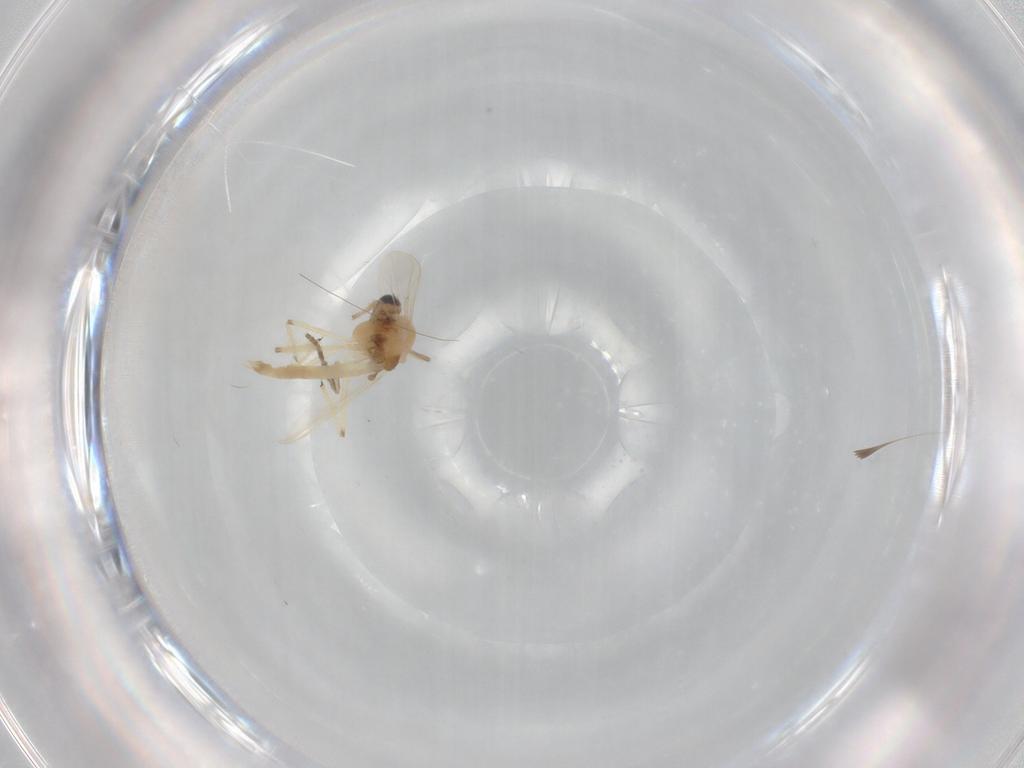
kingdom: Animalia
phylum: Arthropoda
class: Insecta
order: Diptera
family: Chironomidae
